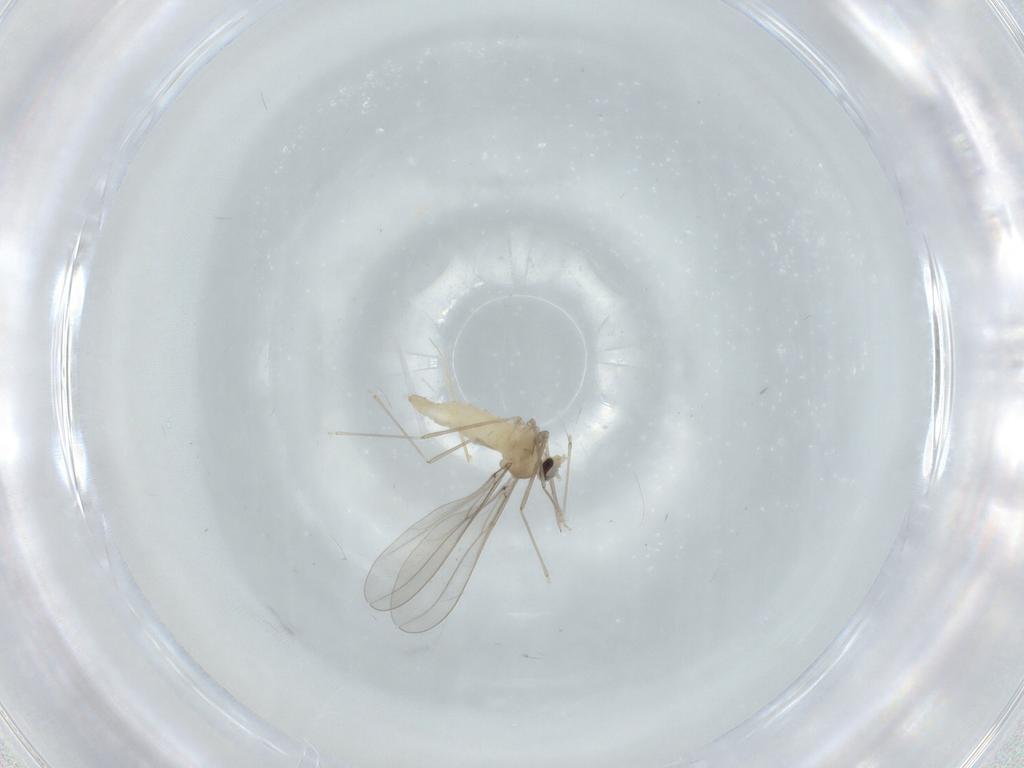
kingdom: Animalia
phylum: Arthropoda
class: Insecta
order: Diptera
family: Cecidomyiidae
